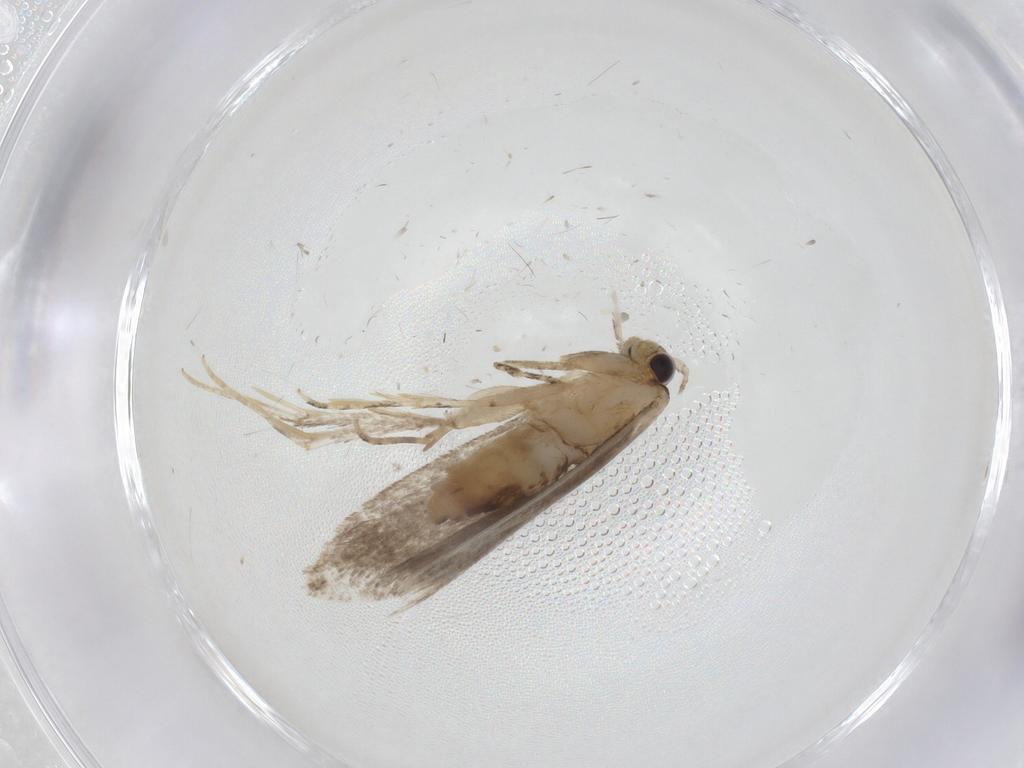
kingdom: Animalia
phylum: Arthropoda
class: Insecta
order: Lepidoptera
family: Tineidae
